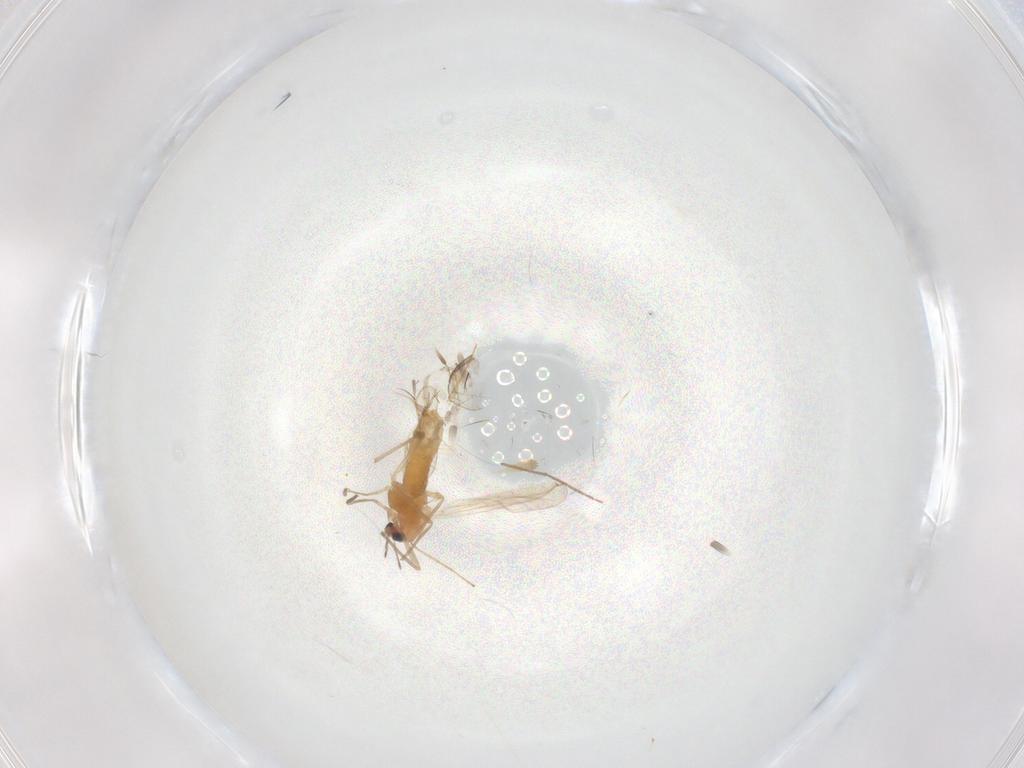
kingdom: Animalia
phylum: Arthropoda
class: Insecta
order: Diptera
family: Chironomidae
